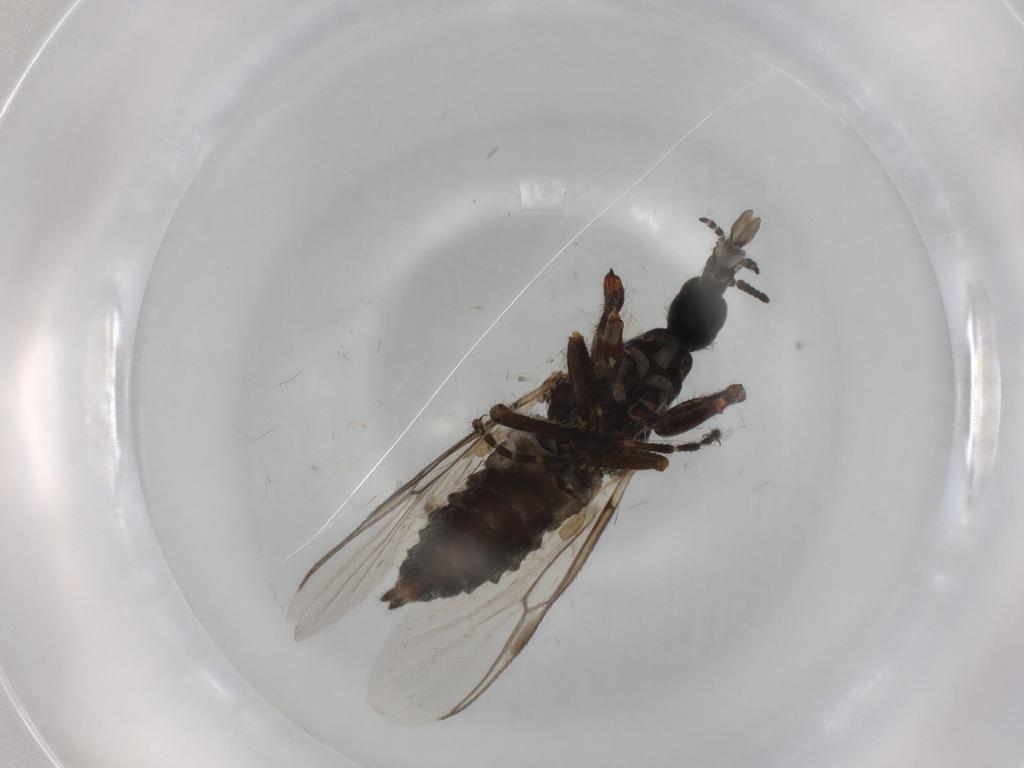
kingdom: Animalia
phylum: Arthropoda
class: Insecta
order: Diptera
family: Bibionidae
